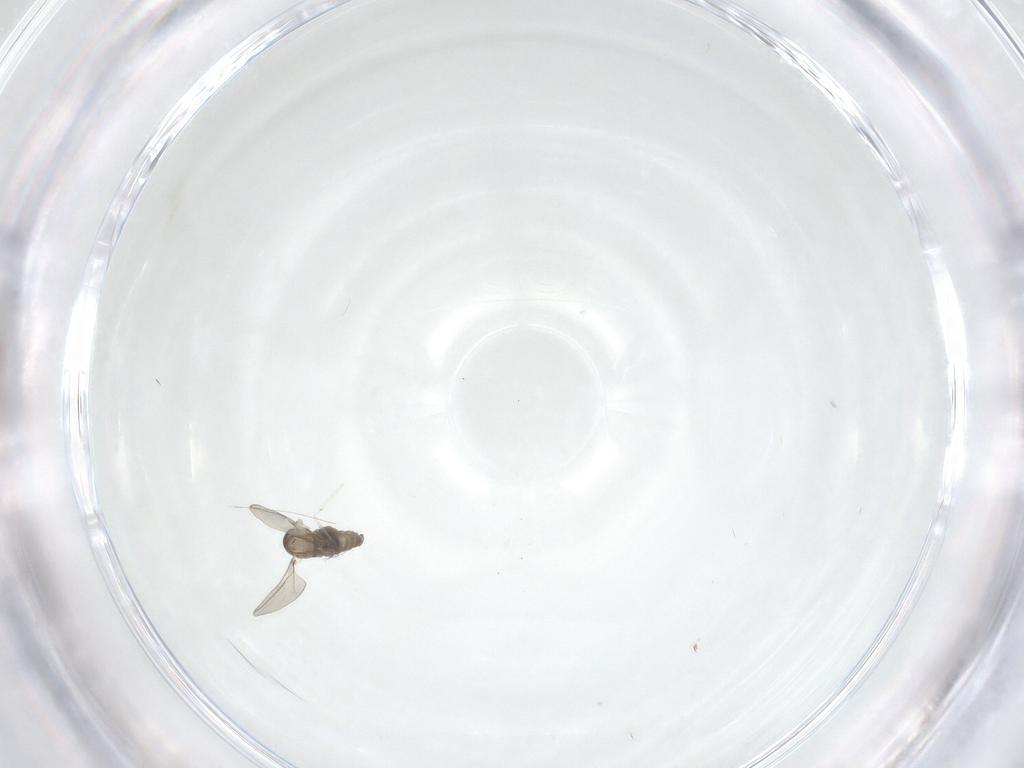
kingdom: Animalia
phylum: Arthropoda
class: Insecta
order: Diptera
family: Cecidomyiidae
